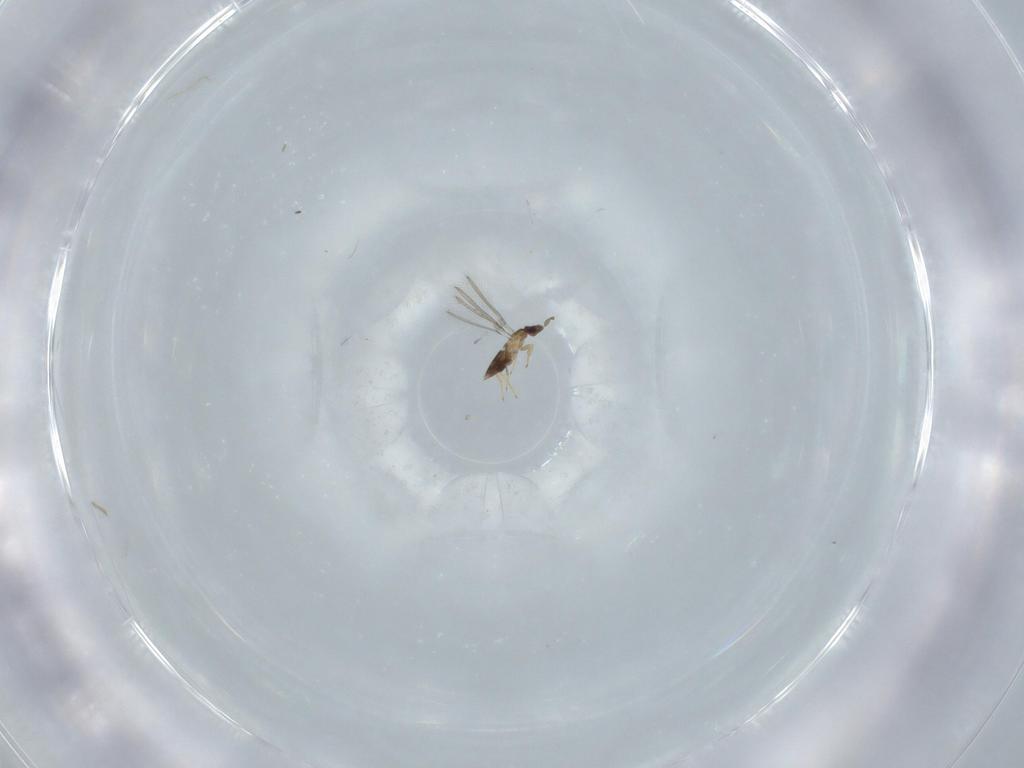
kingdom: Animalia
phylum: Arthropoda
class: Insecta
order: Hymenoptera
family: Mymaridae
